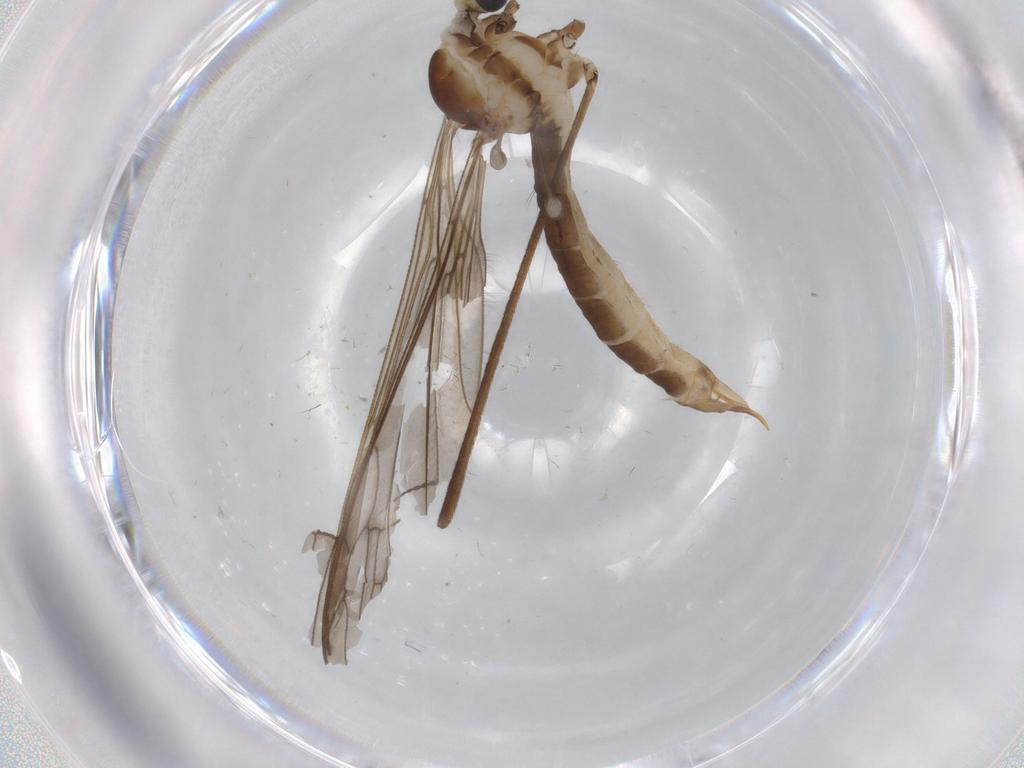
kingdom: Animalia
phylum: Arthropoda
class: Insecta
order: Diptera
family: Limoniidae
